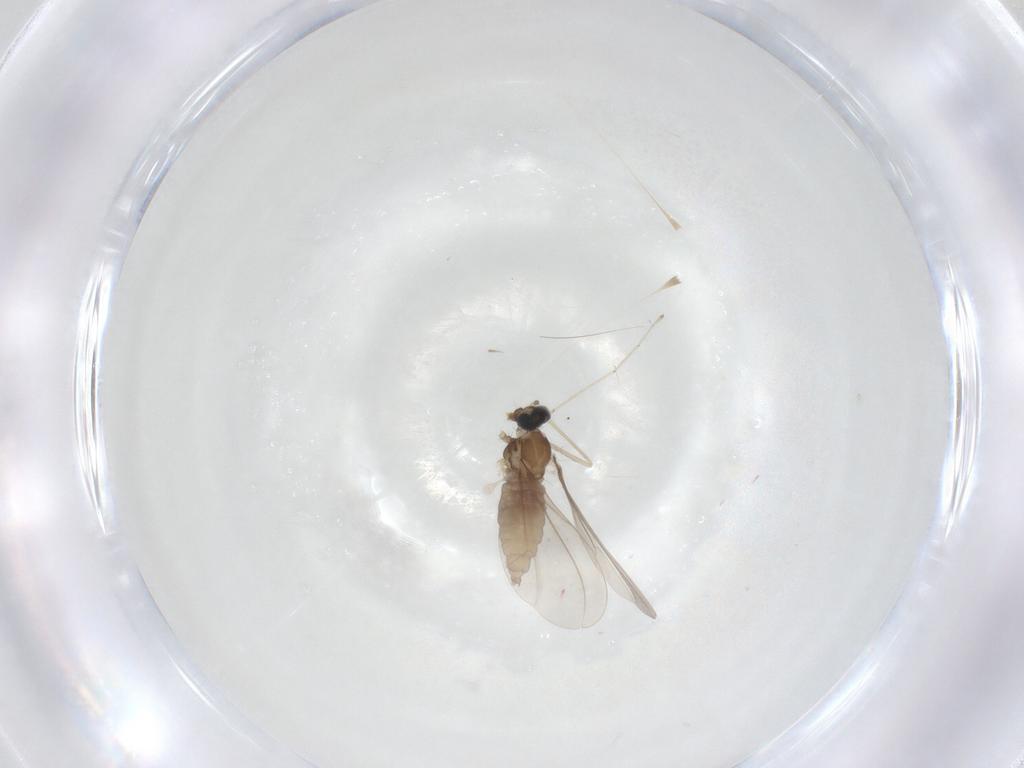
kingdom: Animalia
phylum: Arthropoda
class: Insecta
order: Diptera
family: Cecidomyiidae
